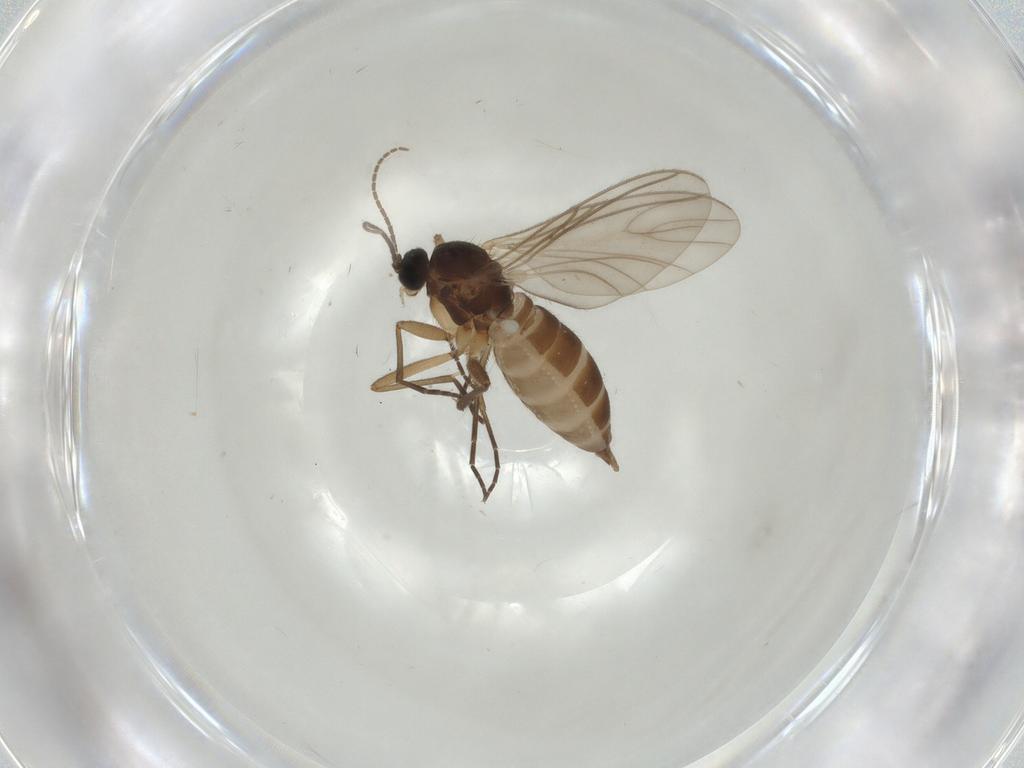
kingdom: Animalia
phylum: Arthropoda
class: Insecta
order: Diptera
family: Sciaridae
